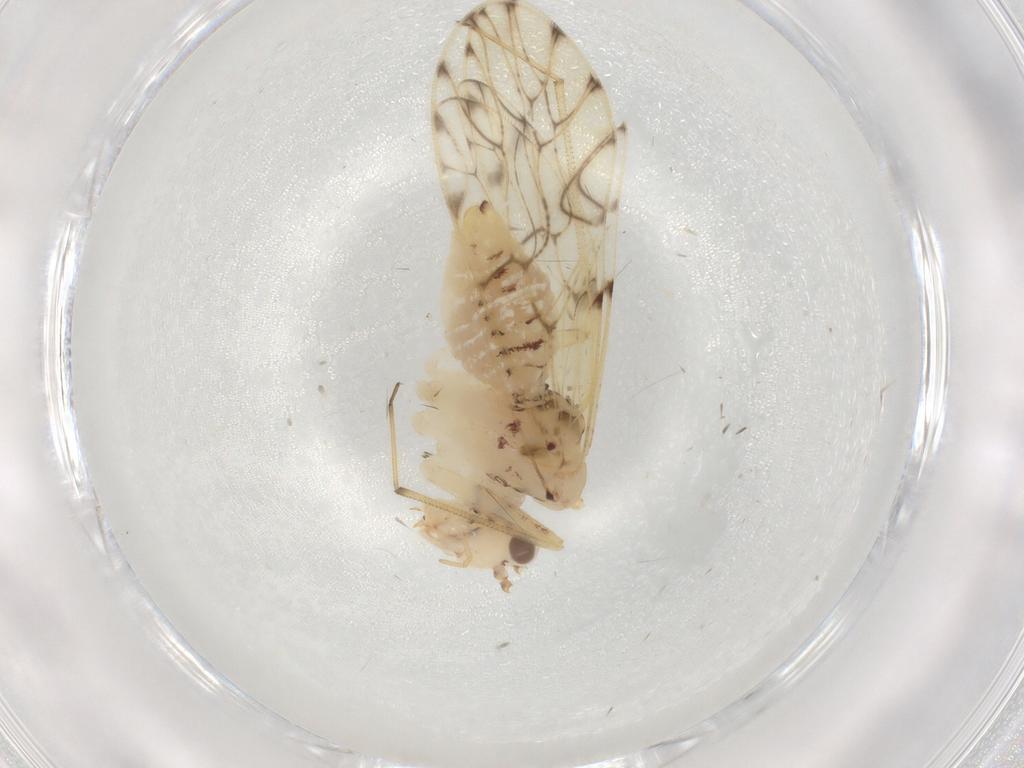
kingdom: Animalia
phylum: Arthropoda
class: Insecta
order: Psocodea
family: Epipsocidae
